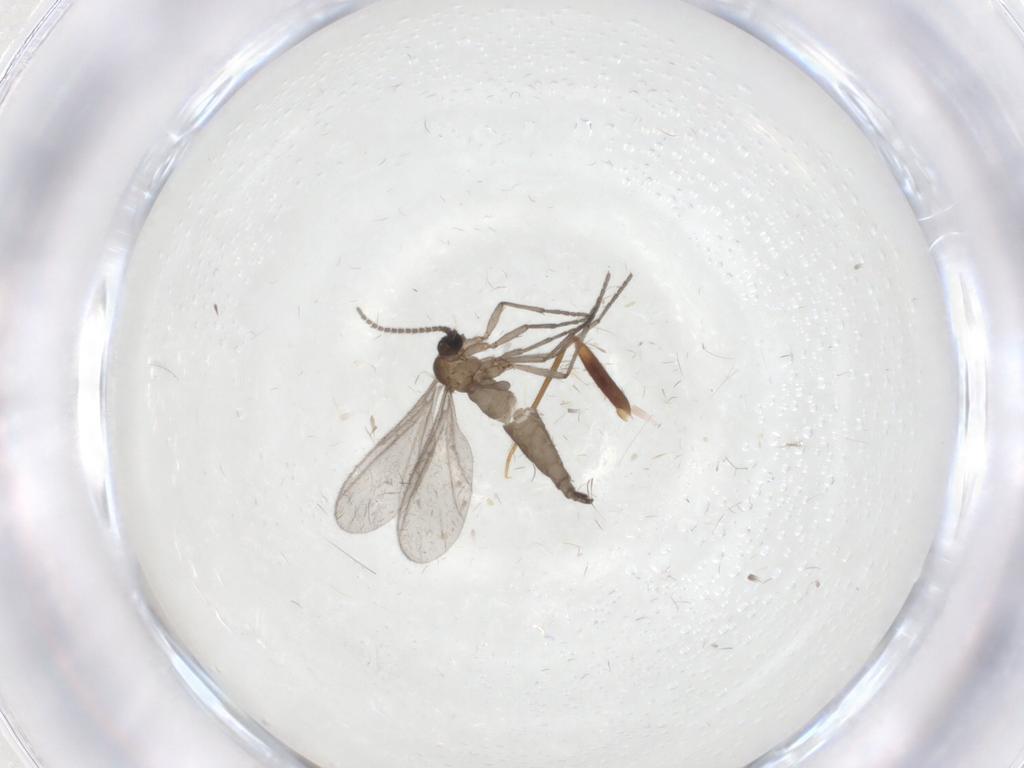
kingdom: Animalia
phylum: Arthropoda
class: Insecta
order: Diptera
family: Sciaridae
